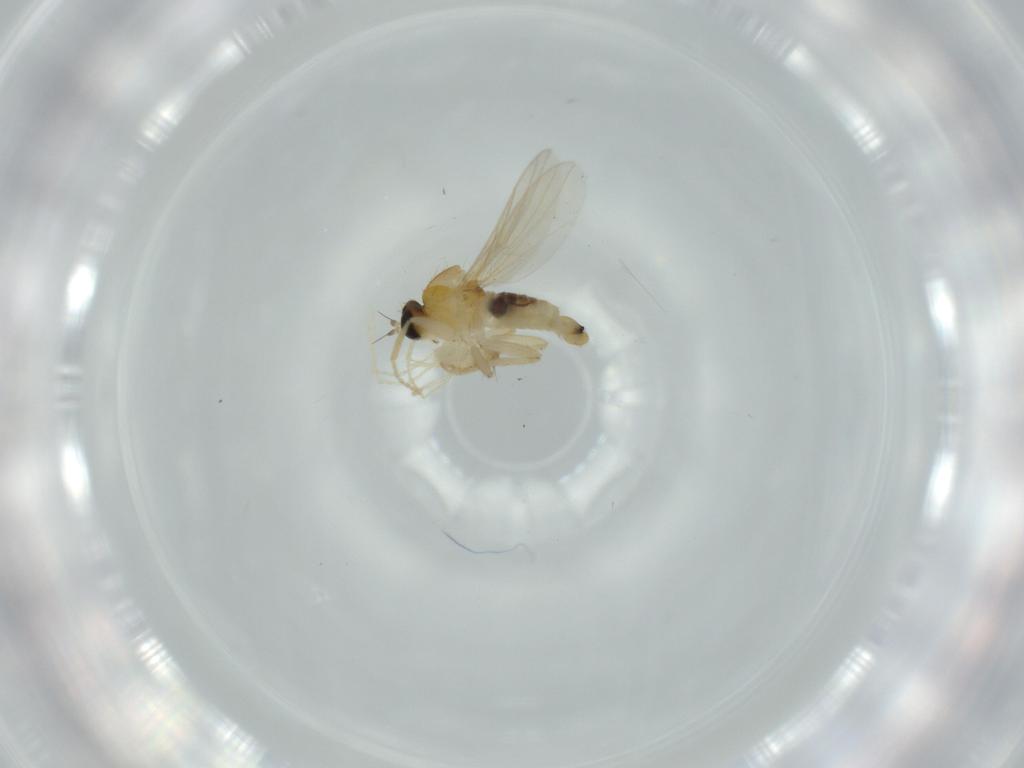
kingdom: Animalia
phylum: Arthropoda
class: Insecta
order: Diptera
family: Hybotidae
